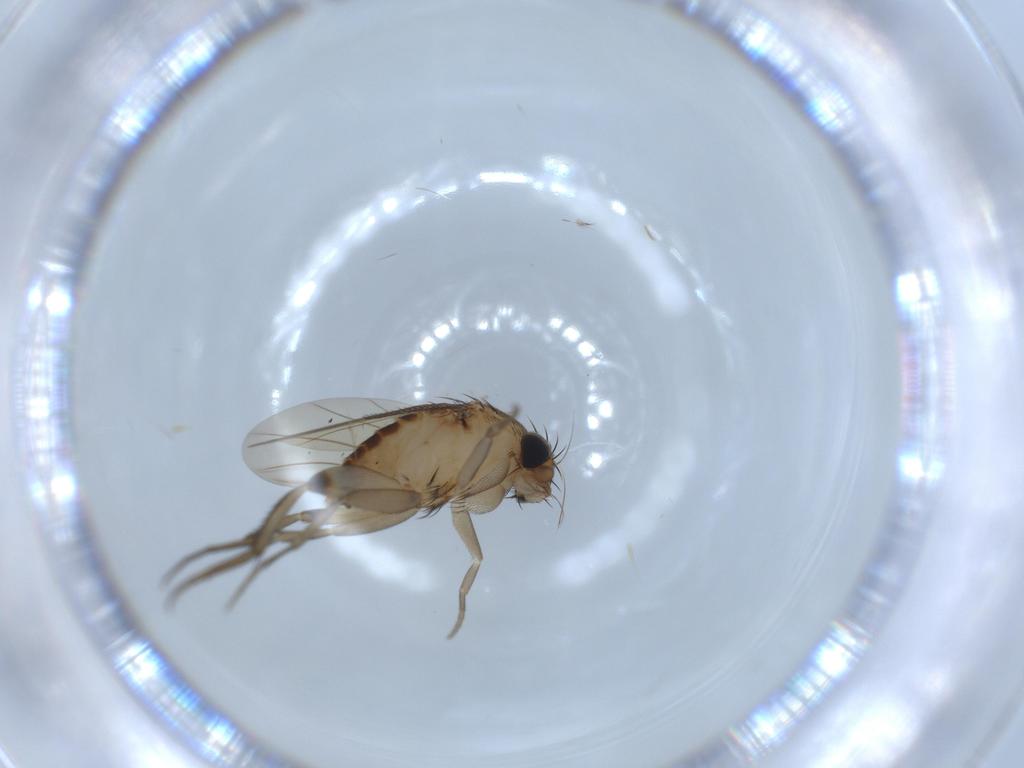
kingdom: Animalia
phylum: Arthropoda
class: Insecta
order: Diptera
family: Phoridae
